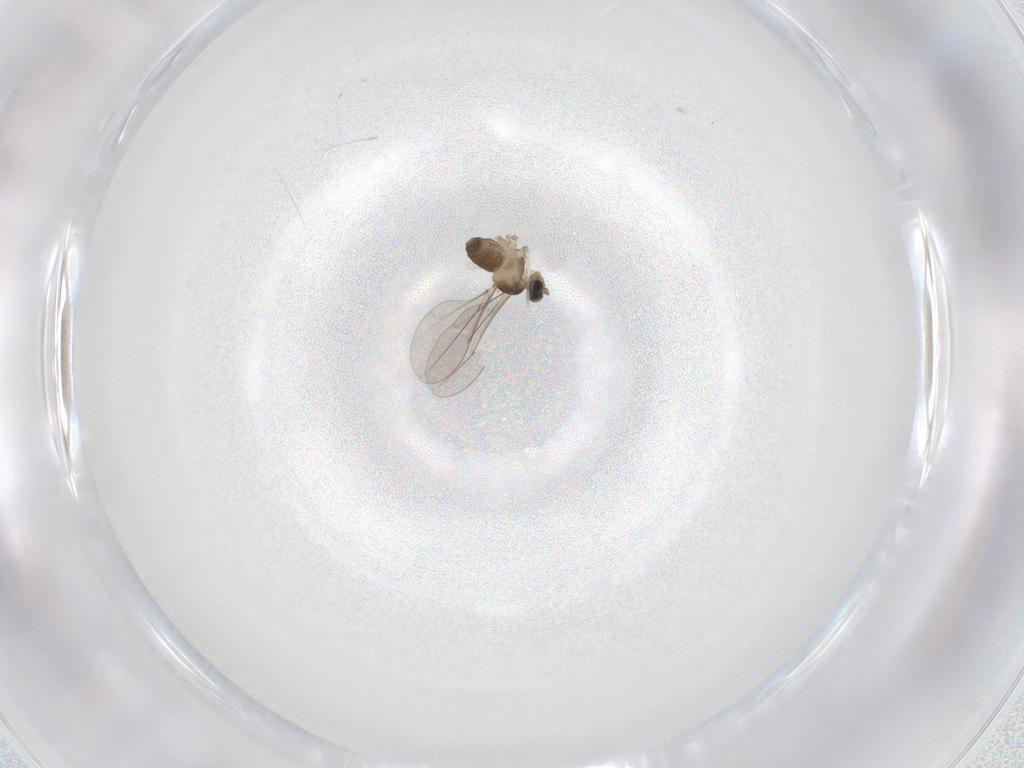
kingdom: Animalia
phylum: Arthropoda
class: Insecta
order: Diptera
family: Cecidomyiidae
